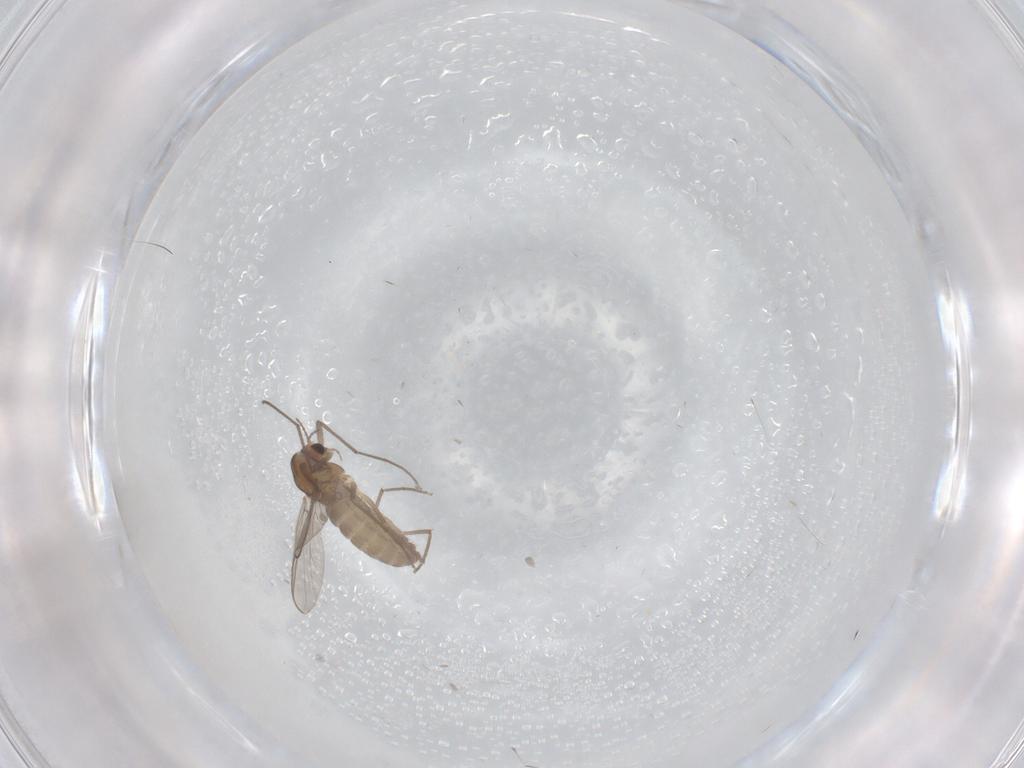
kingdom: Animalia
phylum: Arthropoda
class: Insecta
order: Diptera
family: Chironomidae
